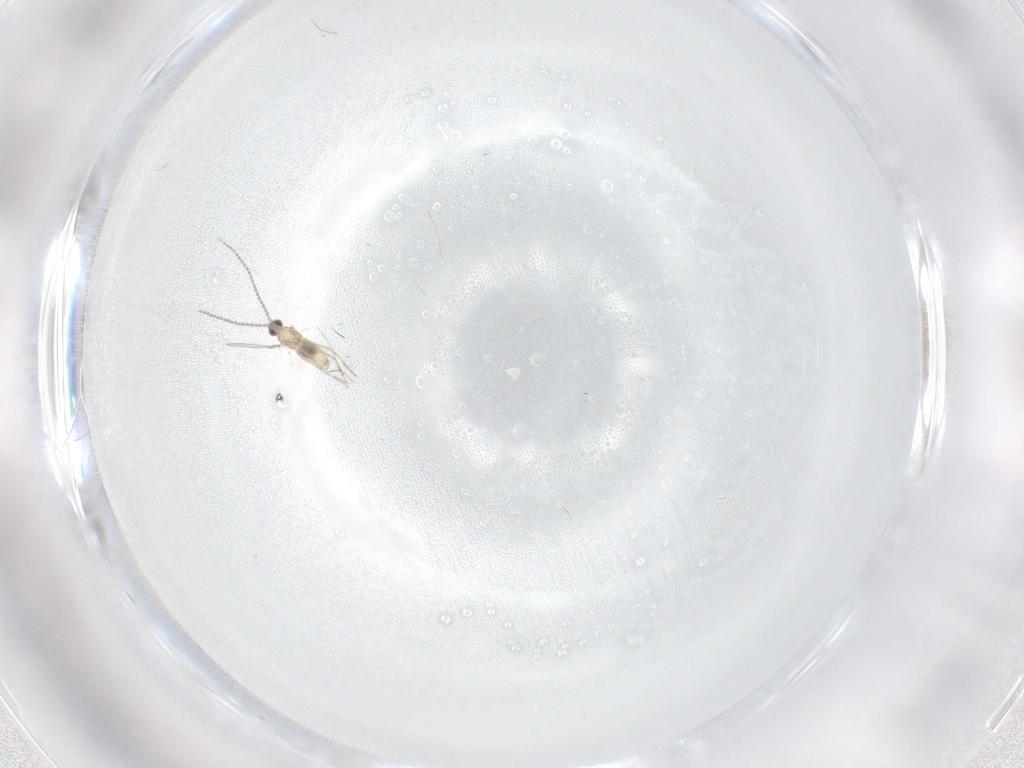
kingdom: Animalia
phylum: Arthropoda
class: Insecta
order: Diptera
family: Cecidomyiidae
